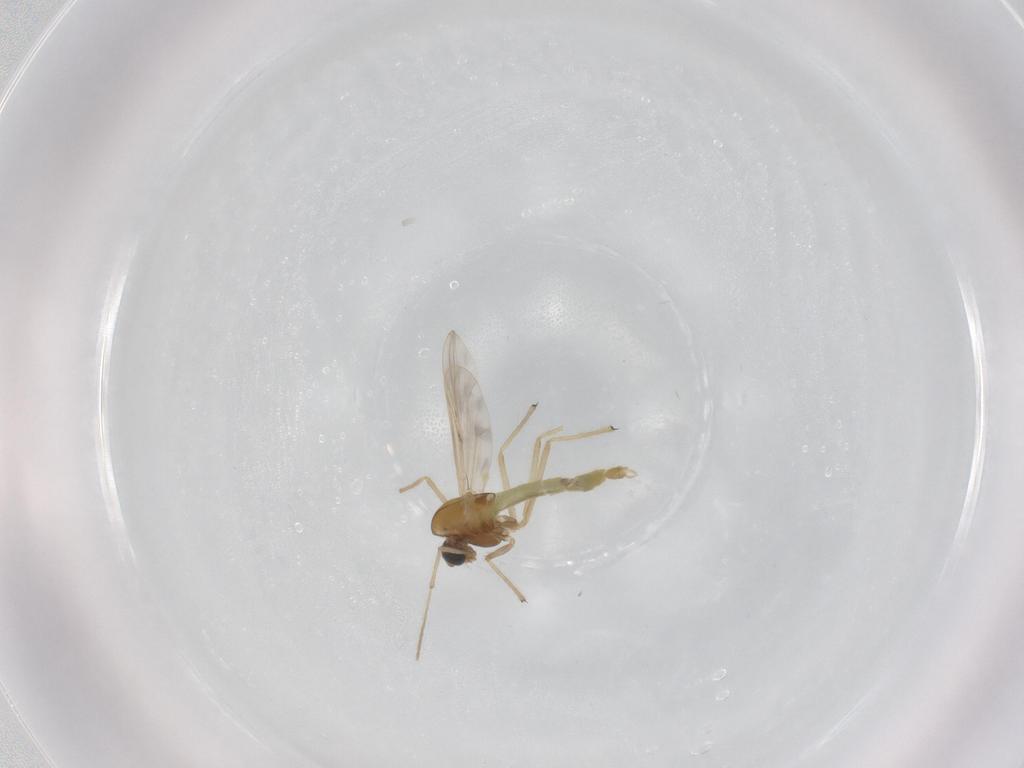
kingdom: Animalia
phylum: Arthropoda
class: Insecta
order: Diptera
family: Chironomidae
